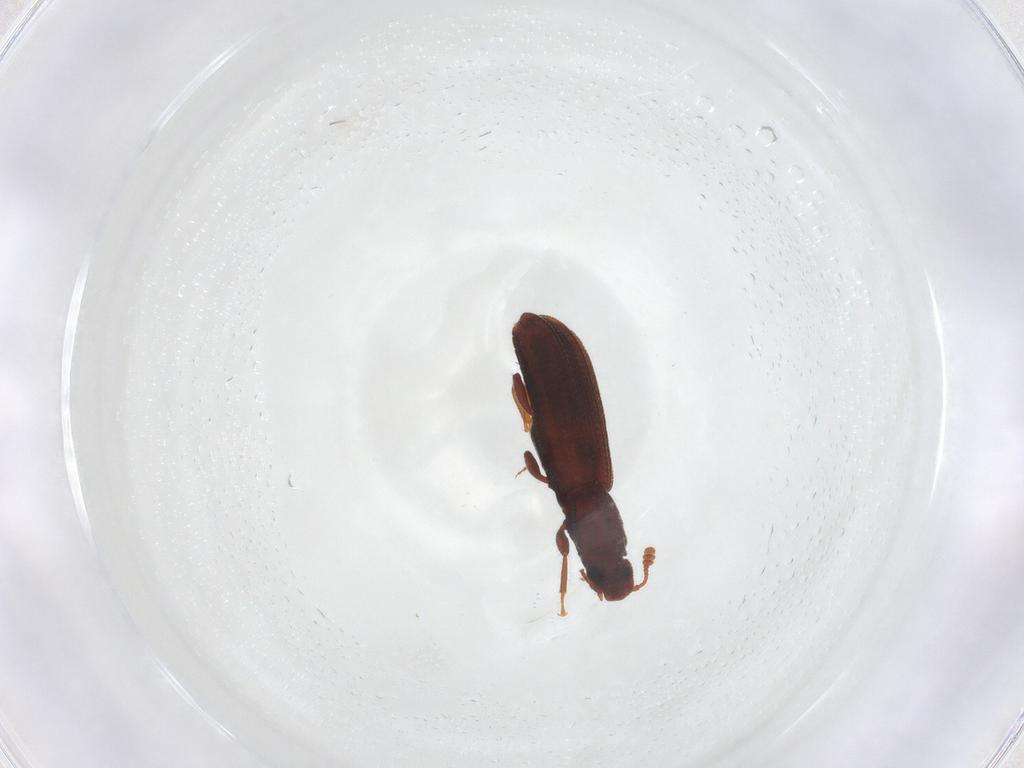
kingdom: Animalia
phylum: Arthropoda
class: Insecta
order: Coleoptera
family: Zopheridae
